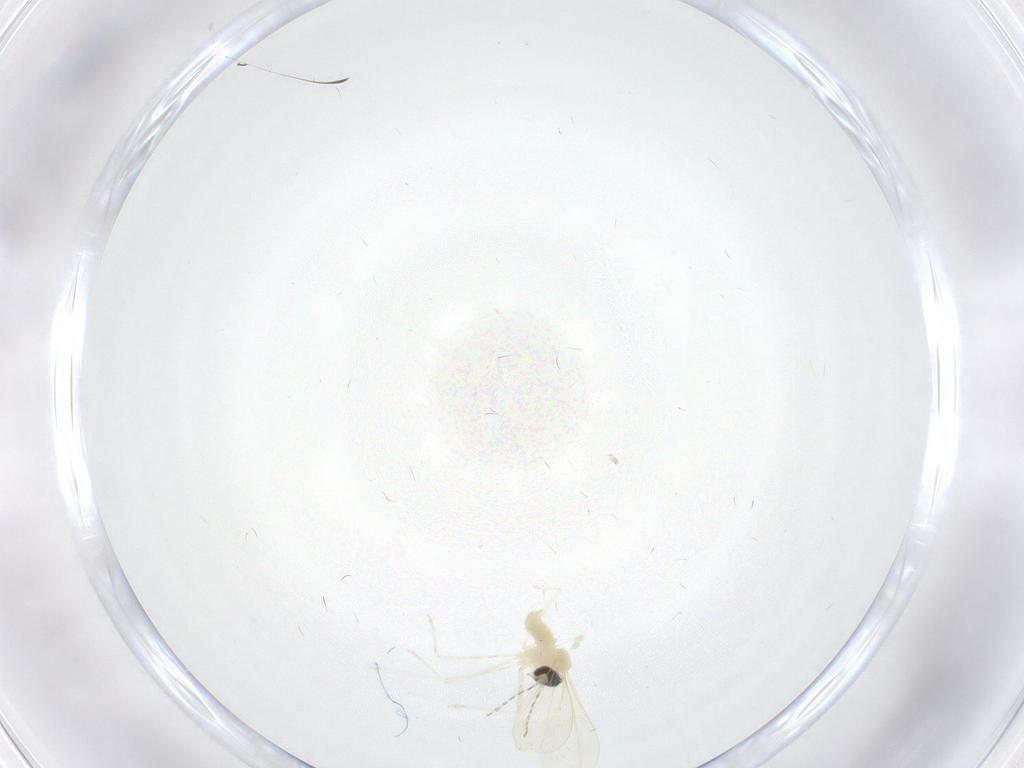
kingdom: Animalia
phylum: Arthropoda
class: Insecta
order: Diptera
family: Cecidomyiidae
